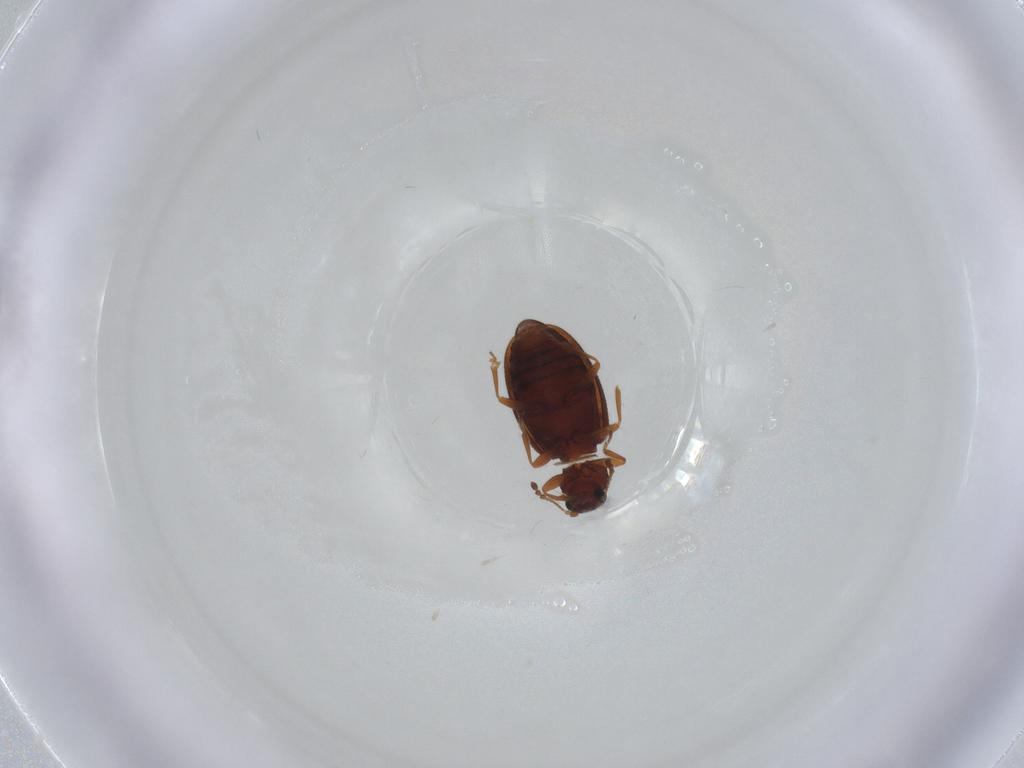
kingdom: Animalia
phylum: Arthropoda
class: Insecta
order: Coleoptera
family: Latridiidae
